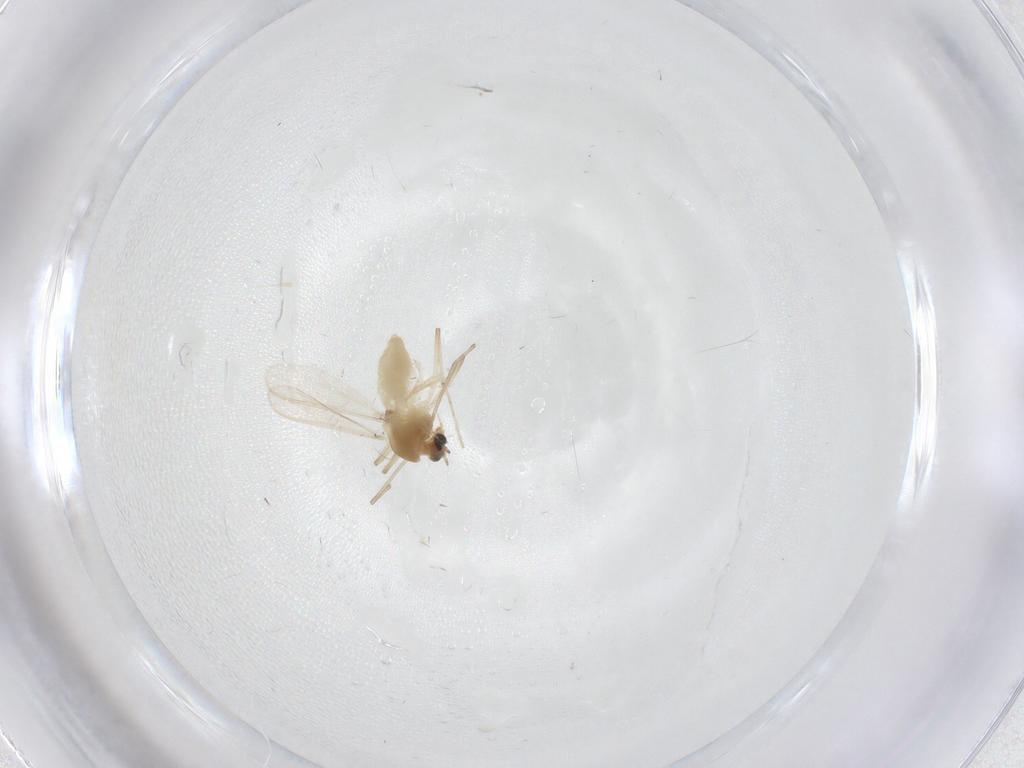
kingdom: Animalia
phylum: Arthropoda
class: Insecta
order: Diptera
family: Chironomidae
